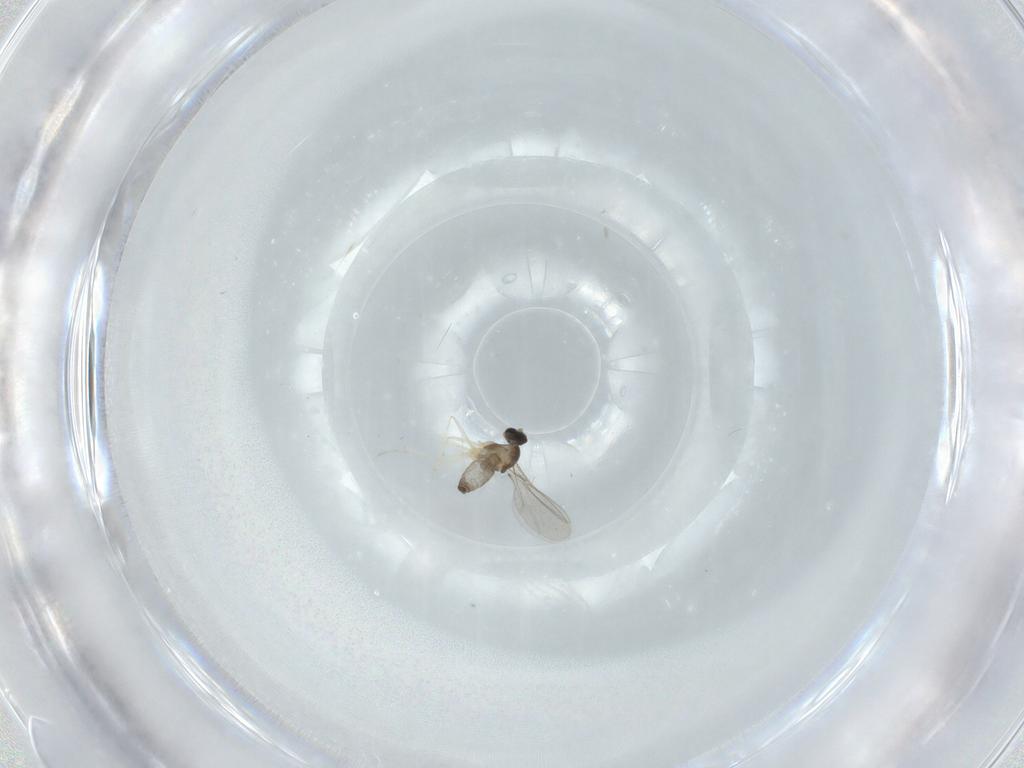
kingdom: Animalia
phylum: Arthropoda
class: Insecta
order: Diptera
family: Cecidomyiidae
